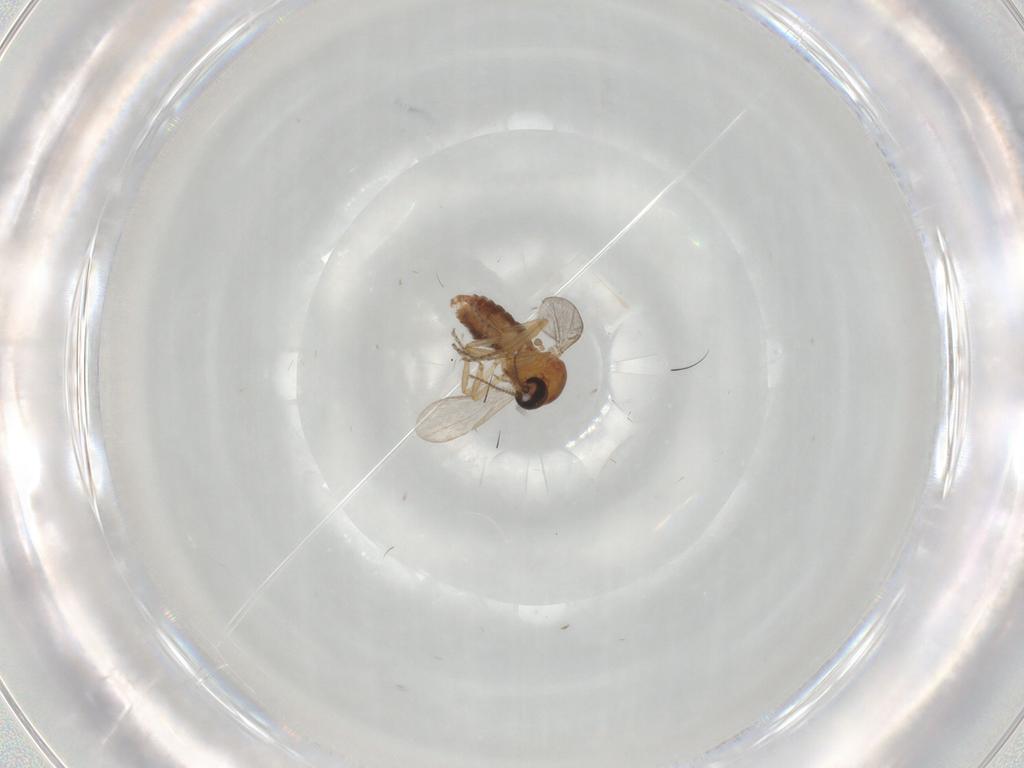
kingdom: Animalia
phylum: Arthropoda
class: Insecta
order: Diptera
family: Ceratopogonidae
